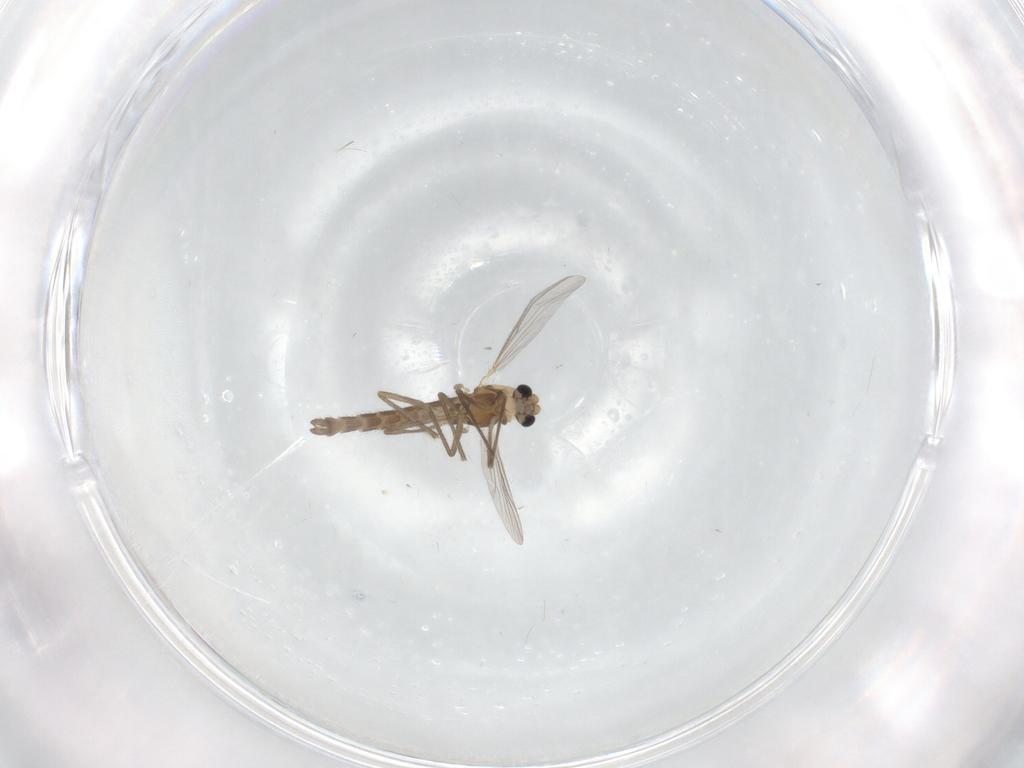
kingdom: Animalia
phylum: Arthropoda
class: Insecta
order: Diptera
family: Chironomidae
